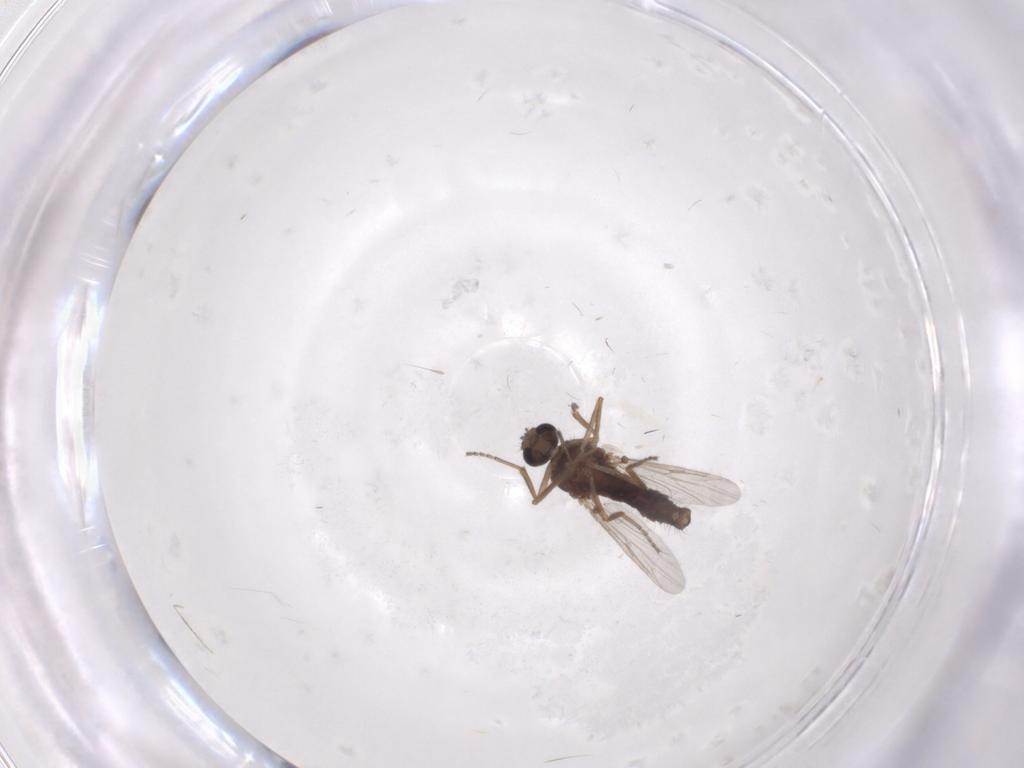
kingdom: Animalia
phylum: Arthropoda
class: Insecta
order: Diptera
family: Ceratopogonidae
